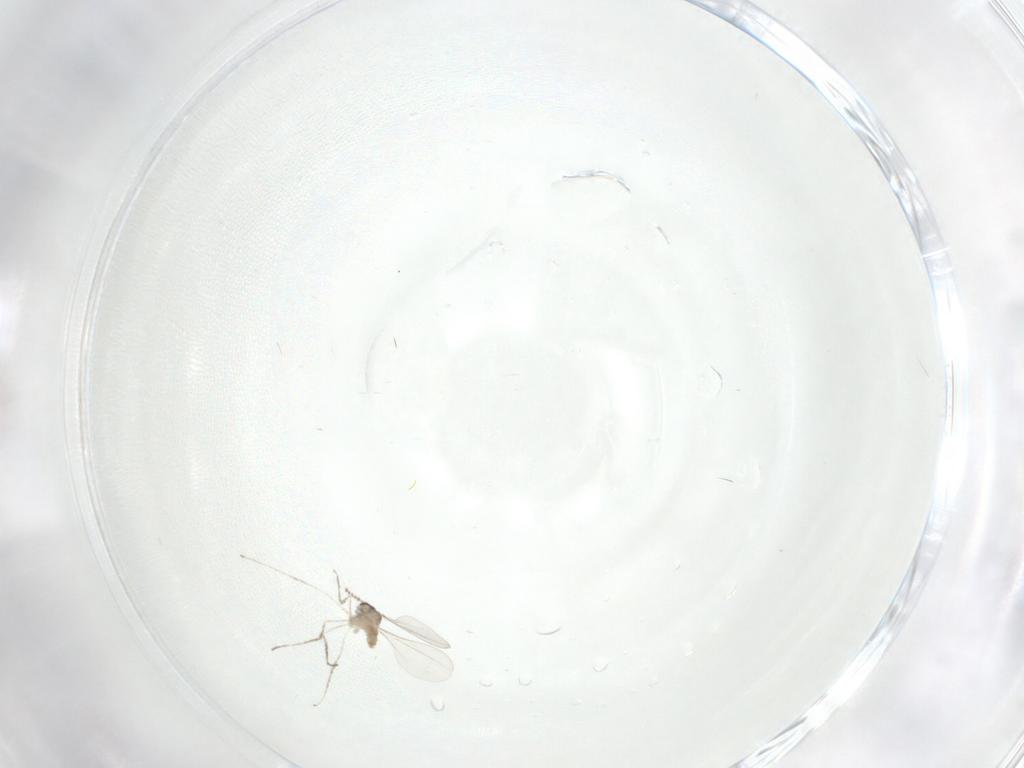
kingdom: Animalia
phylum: Arthropoda
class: Insecta
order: Diptera
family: Cecidomyiidae
